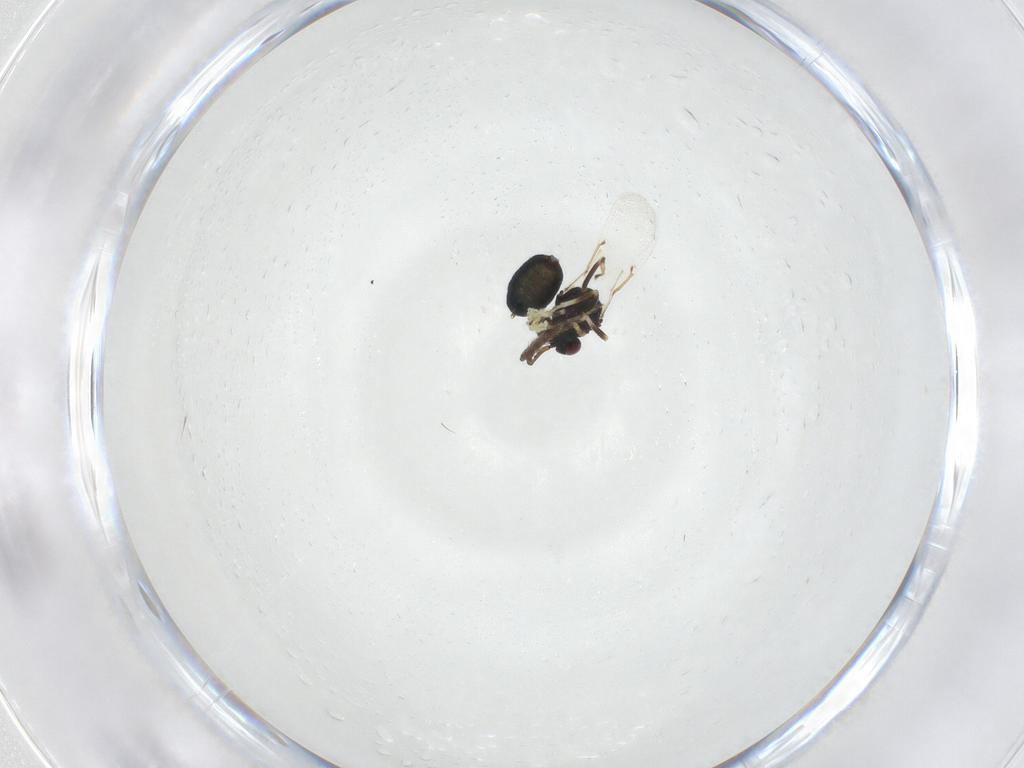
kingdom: Animalia
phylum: Arthropoda
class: Insecta
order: Hymenoptera
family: Eulophidae
